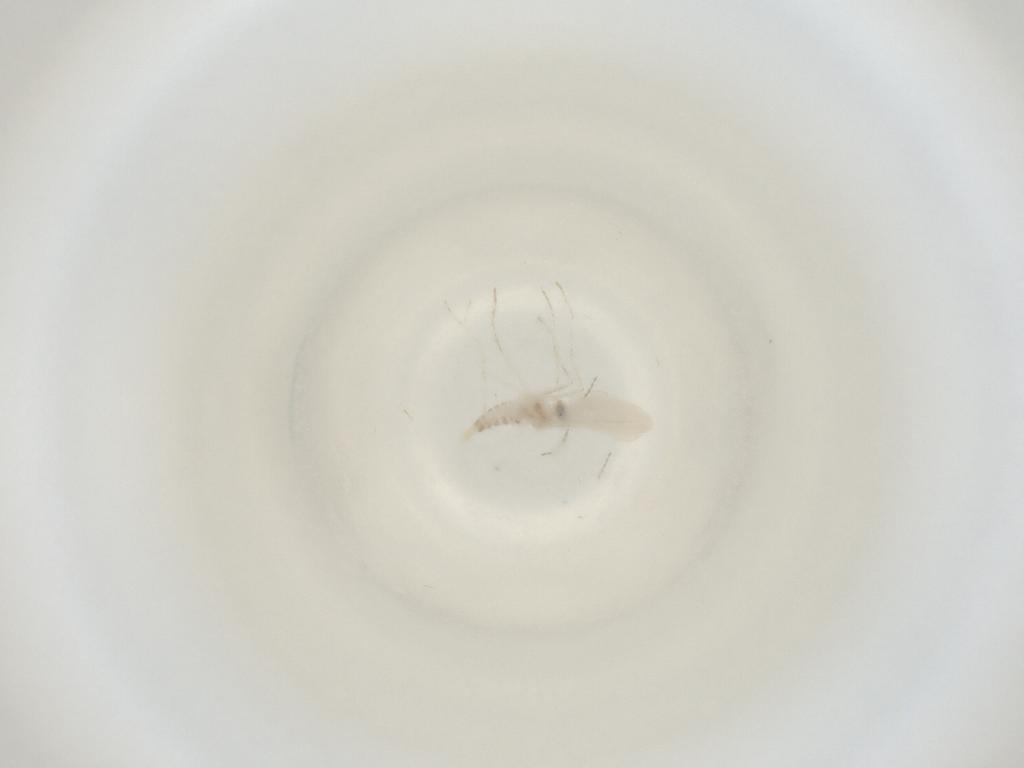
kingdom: Animalia
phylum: Arthropoda
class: Insecta
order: Diptera
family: Cecidomyiidae
